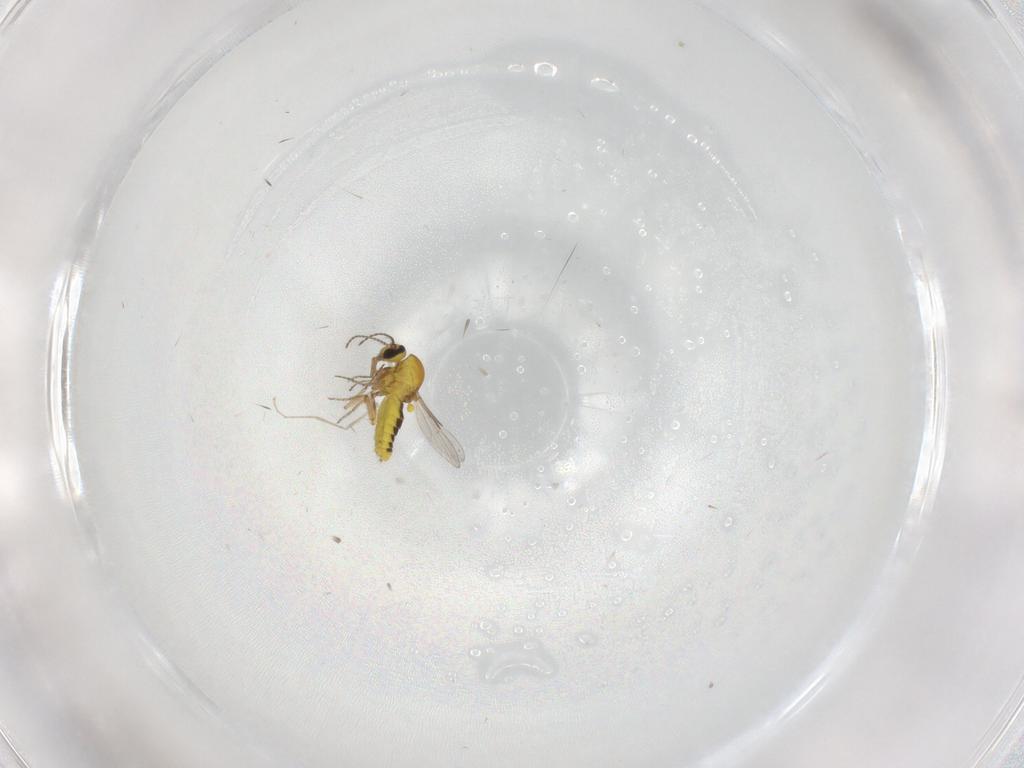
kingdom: Animalia
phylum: Arthropoda
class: Insecta
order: Diptera
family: Ceratopogonidae
